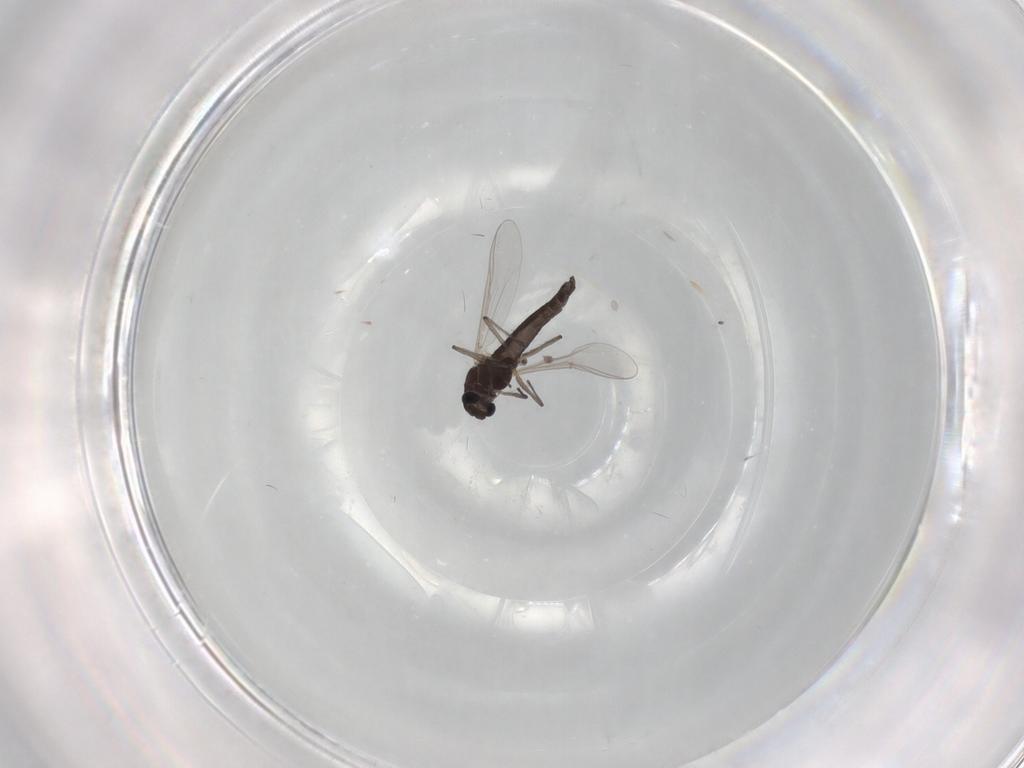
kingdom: Animalia
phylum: Arthropoda
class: Insecta
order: Diptera
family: Chironomidae
